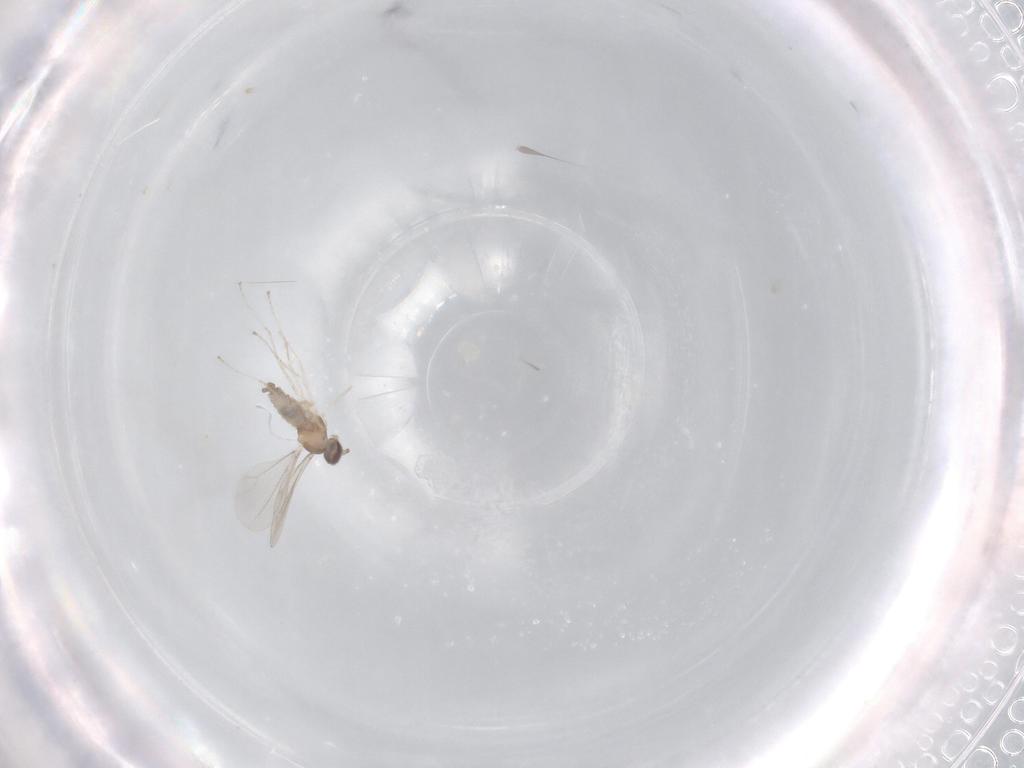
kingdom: Animalia
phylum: Arthropoda
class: Insecta
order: Diptera
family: Cecidomyiidae
